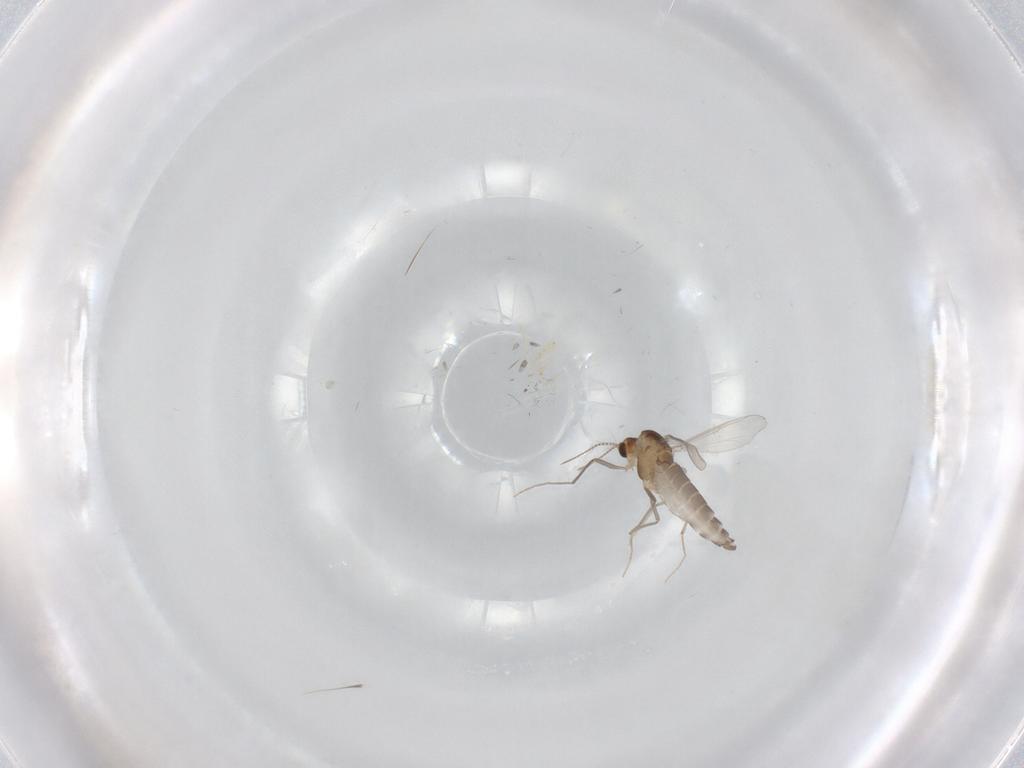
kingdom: Animalia
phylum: Arthropoda
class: Insecta
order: Diptera
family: Chironomidae
